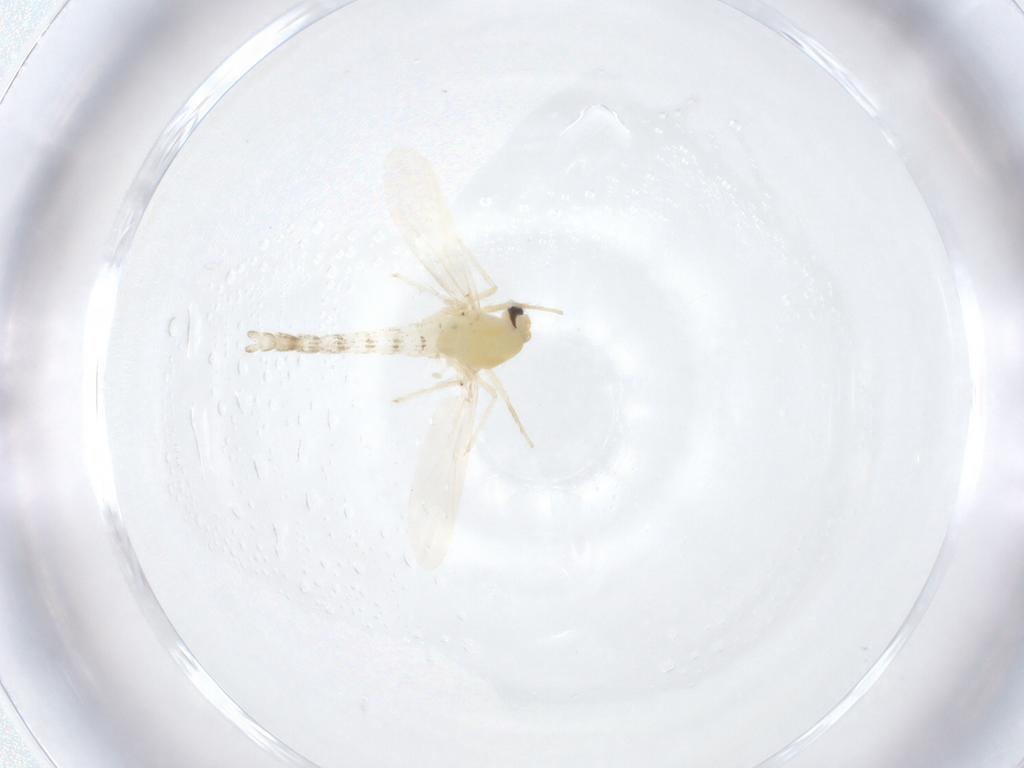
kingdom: Animalia
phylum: Arthropoda
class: Insecta
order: Diptera
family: Chironomidae
